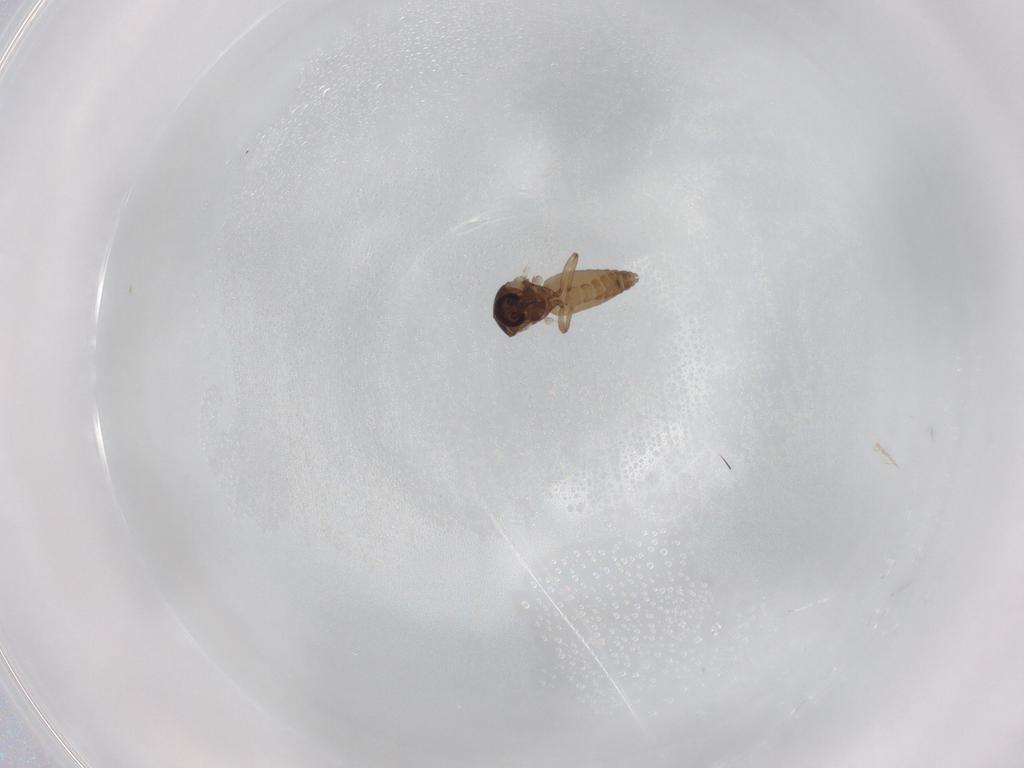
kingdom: Animalia
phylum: Arthropoda
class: Insecta
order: Diptera
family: Ceratopogonidae
